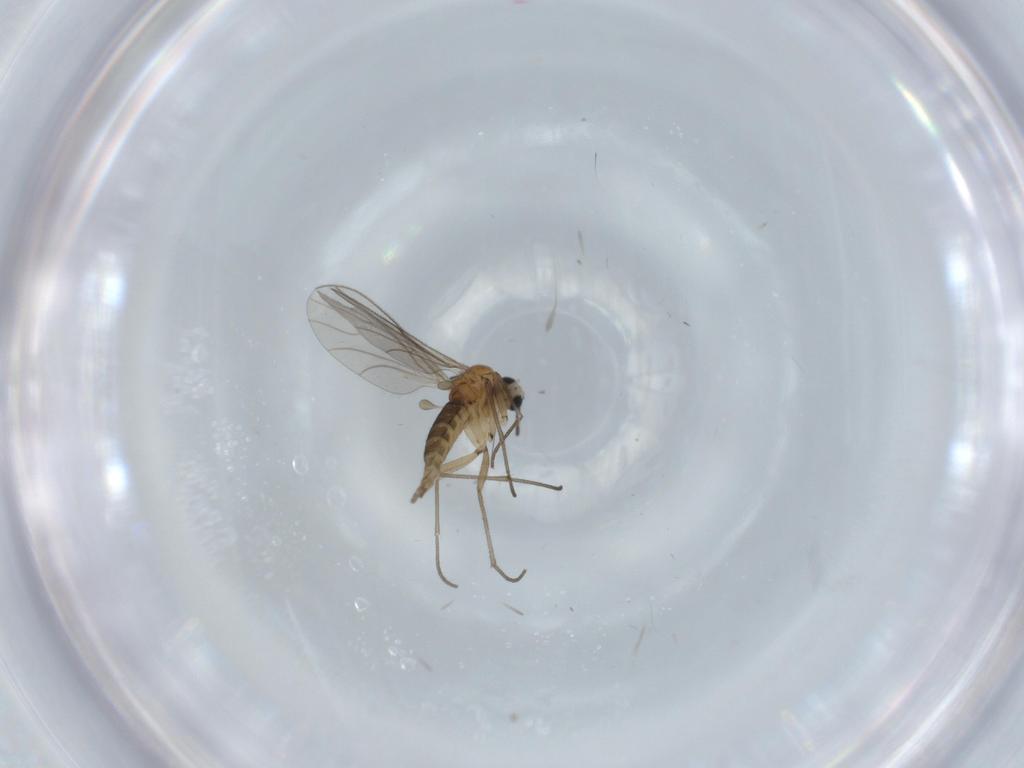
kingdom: Animalia
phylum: Arthropoda
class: Insecta
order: Diptera
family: Sciaridae
